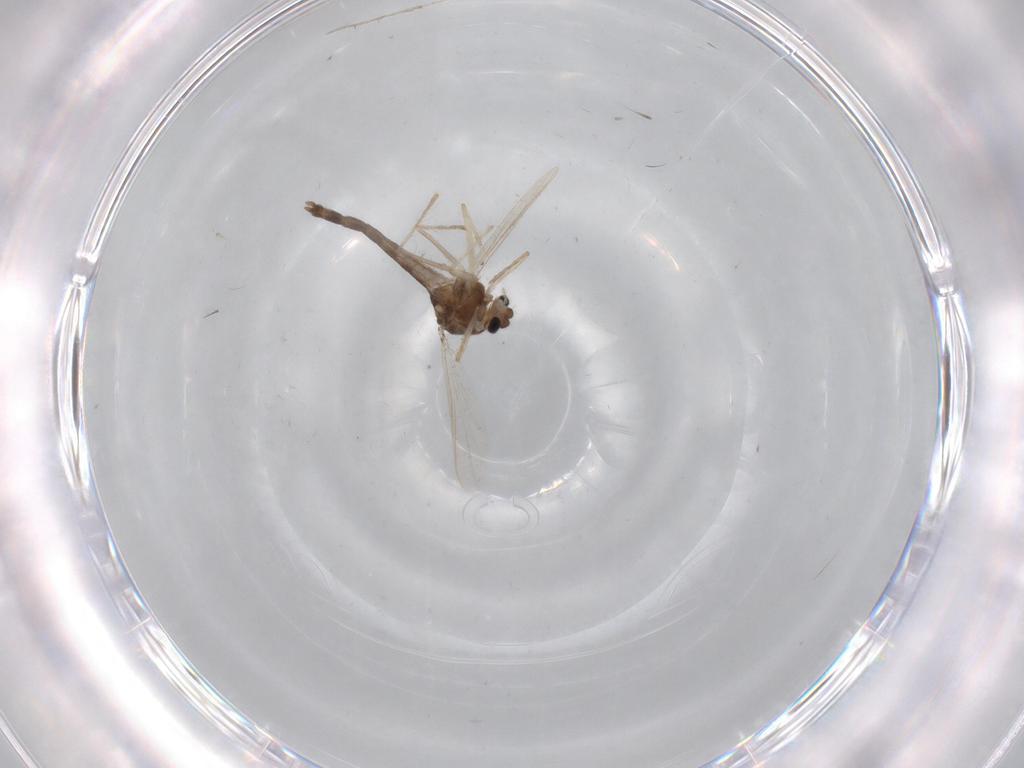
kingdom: Animalia
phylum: Arthropoda
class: Insecta
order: Diptera
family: Chironomidae
